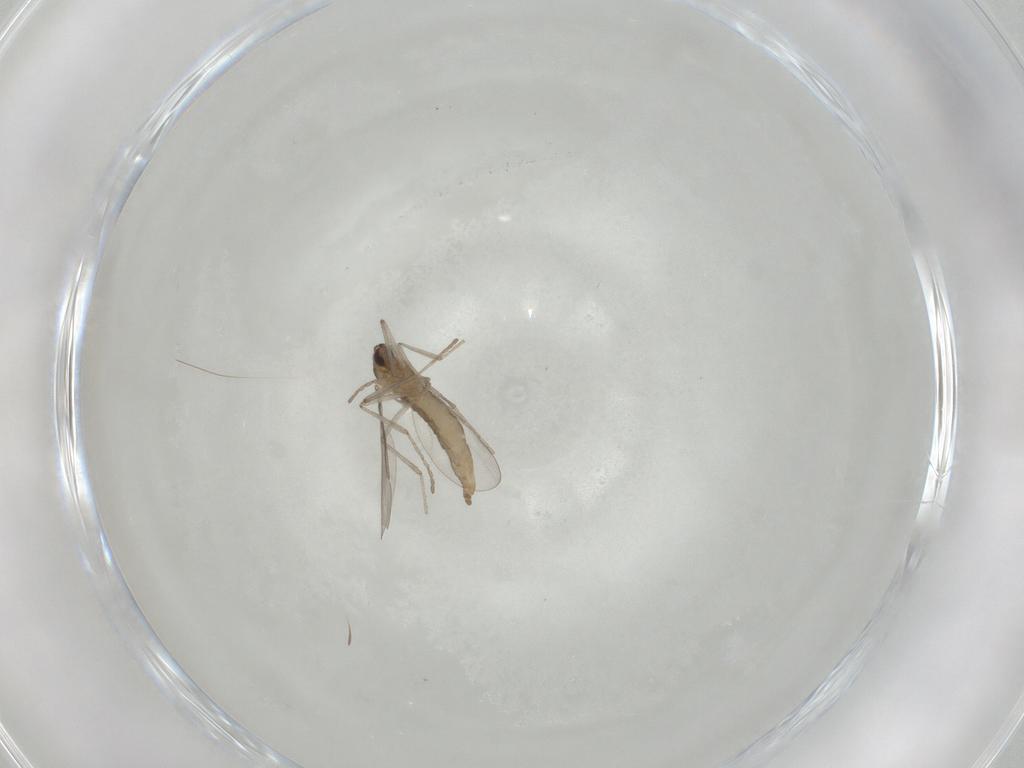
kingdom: Animalia
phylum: Arthropoda
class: Insecta
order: Diptera
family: Cecidomyiidae
